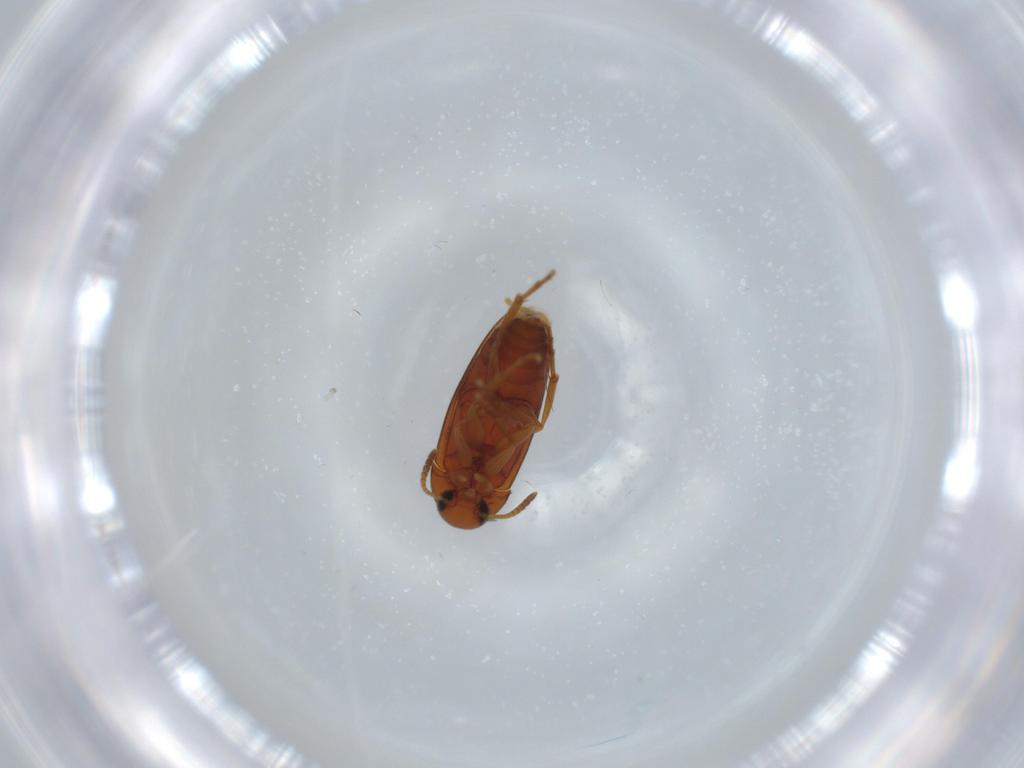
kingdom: Animalia
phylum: Arthropoda
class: Insecta
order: Coleoptera
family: Scraptiidae
